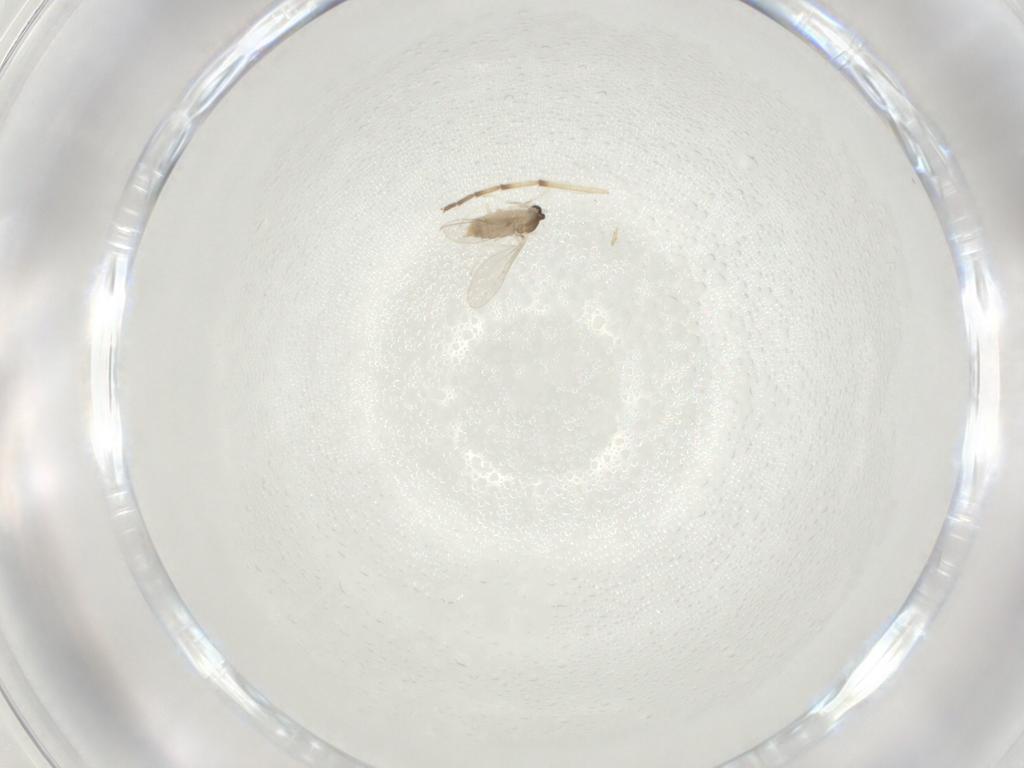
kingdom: Animalia
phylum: Arthropoda
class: Insecta
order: Diptera
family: Cecidomyiidae
